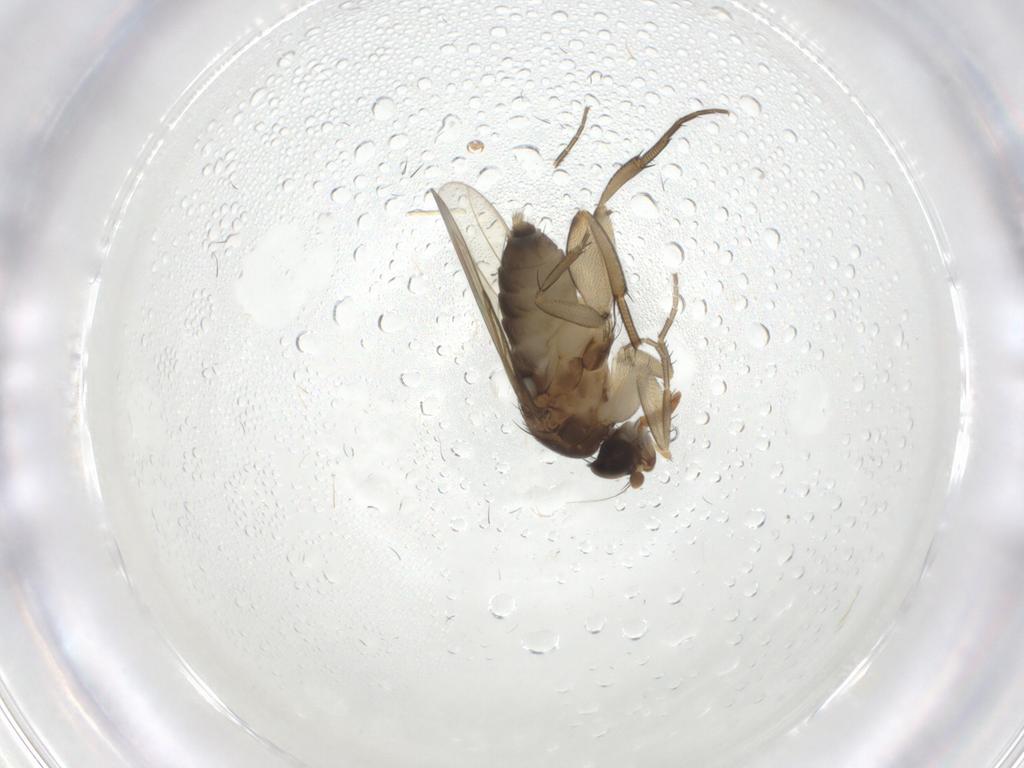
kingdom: Animalia
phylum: Arthropoda
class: Insecta
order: Diptera
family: Phoridae
